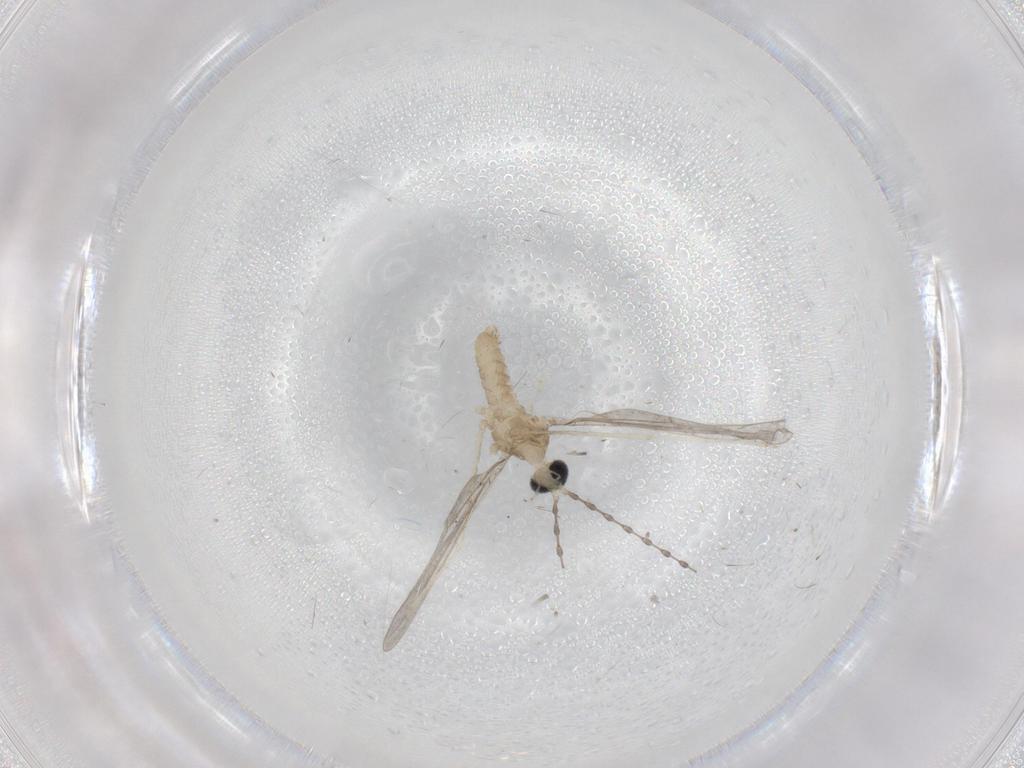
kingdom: Animalia
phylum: Arthropoda
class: Insecta
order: Diptera
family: Cecidomyiidae
